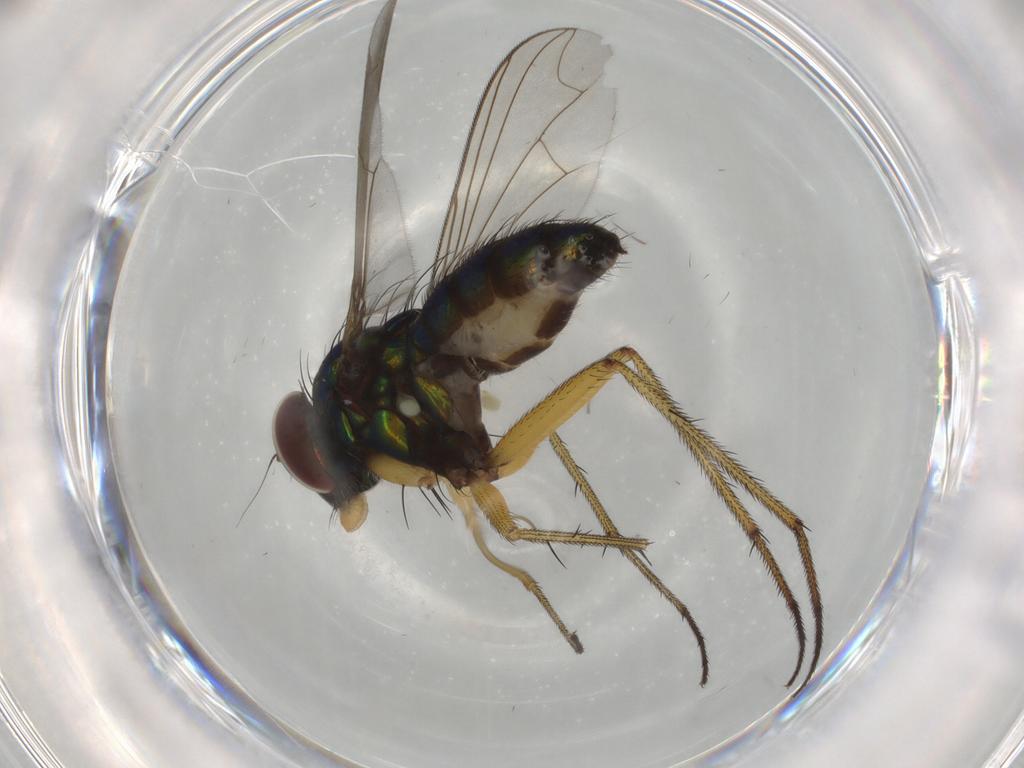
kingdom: Animalia
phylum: Arthropoda
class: Insecta
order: Diptera
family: Dolichopodidae
